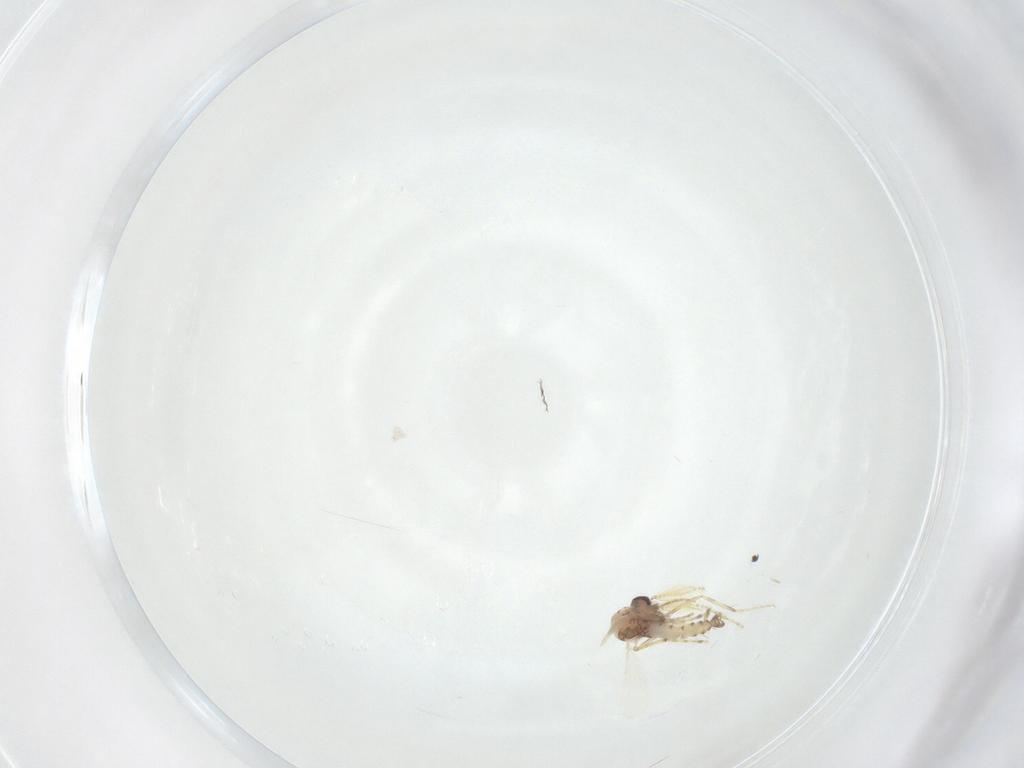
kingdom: Animalia
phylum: Arthropoda
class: Insecta
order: Diptera
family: Ceratopogonidae
